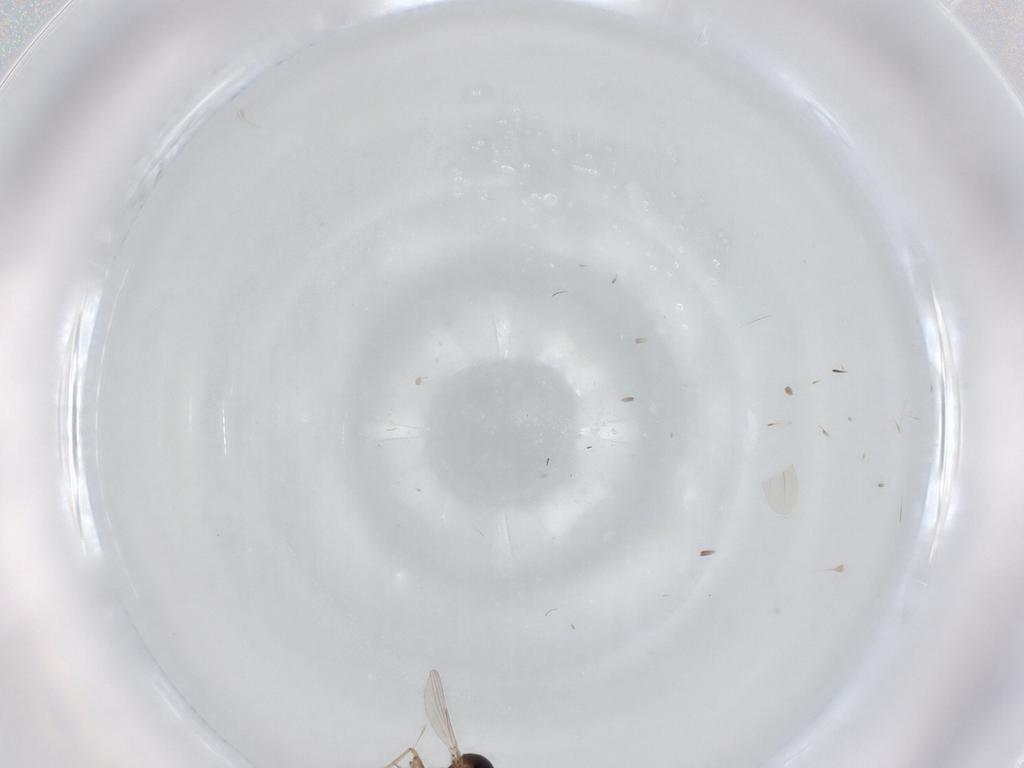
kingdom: Animalia
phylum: Arthropoda
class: Insecta
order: Diptera
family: Ceratopogonidae
